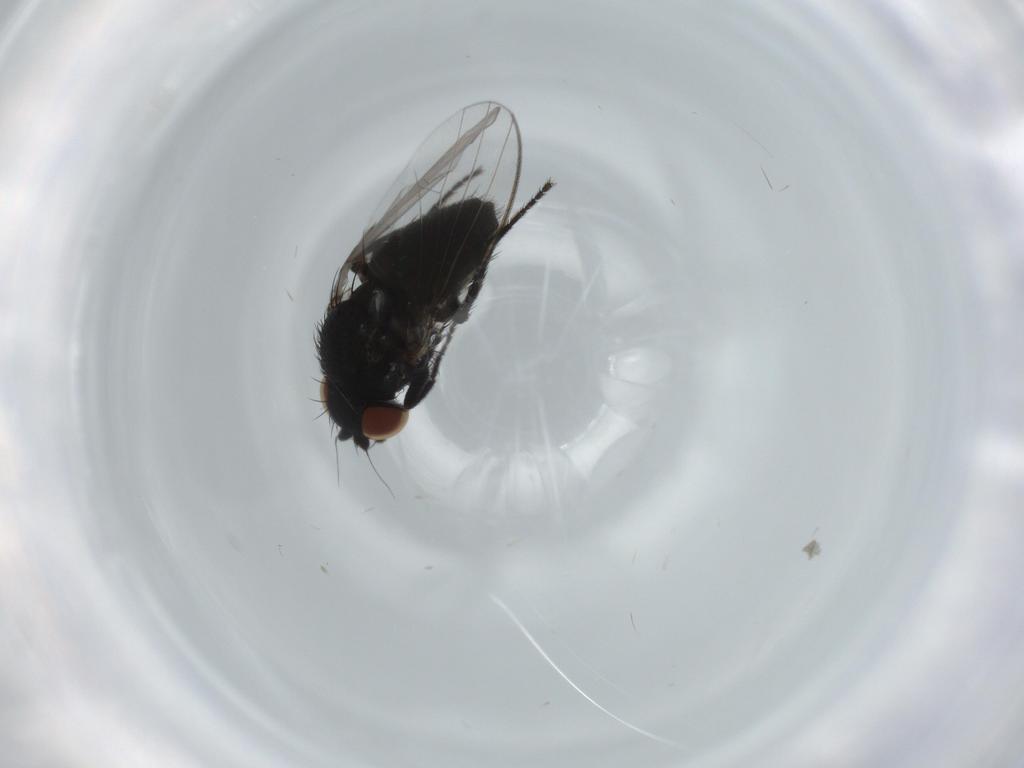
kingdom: Animalia
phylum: Arthropoda
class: Insecta
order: Diptera
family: Milichiidae
